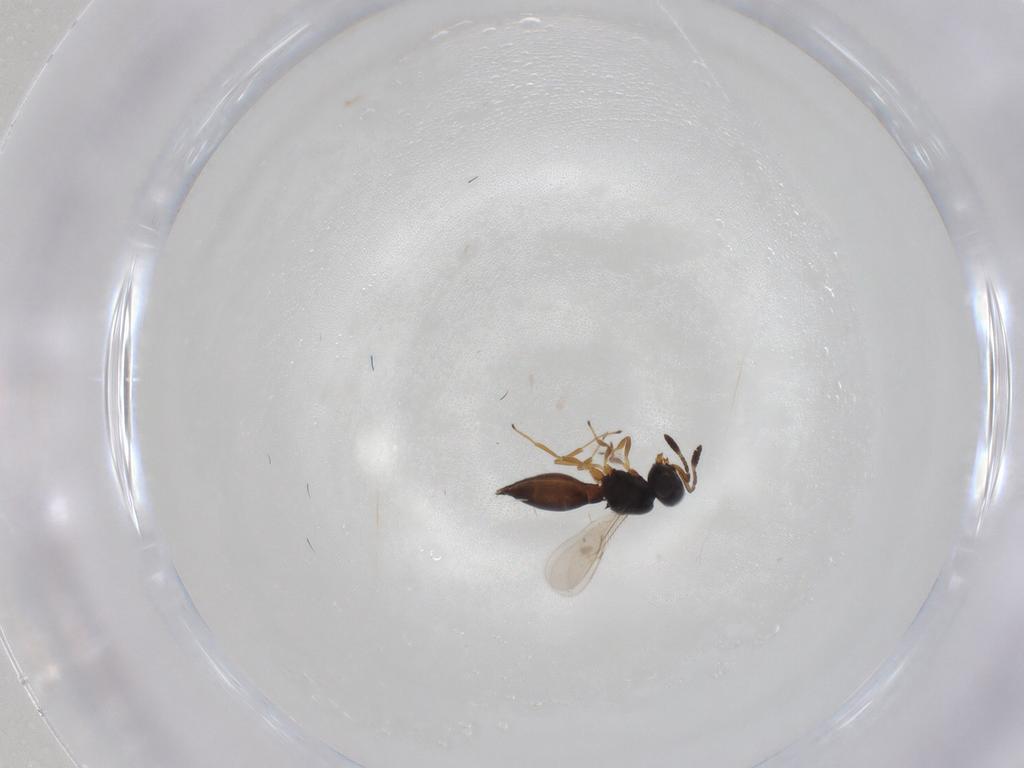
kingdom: Animalia
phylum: Arthropoda
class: Insecta
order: Hymenoptera
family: Scelionidae
